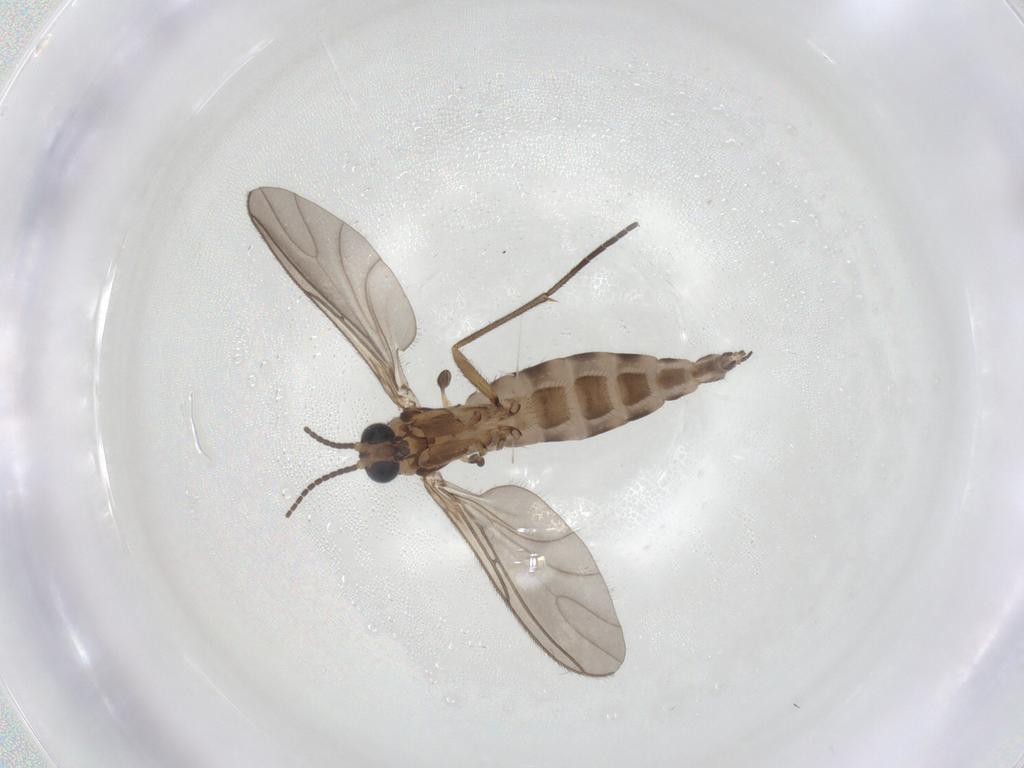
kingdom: Animalia
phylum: Arthropoda
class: Insecta
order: Diptera
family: Sciaridae
